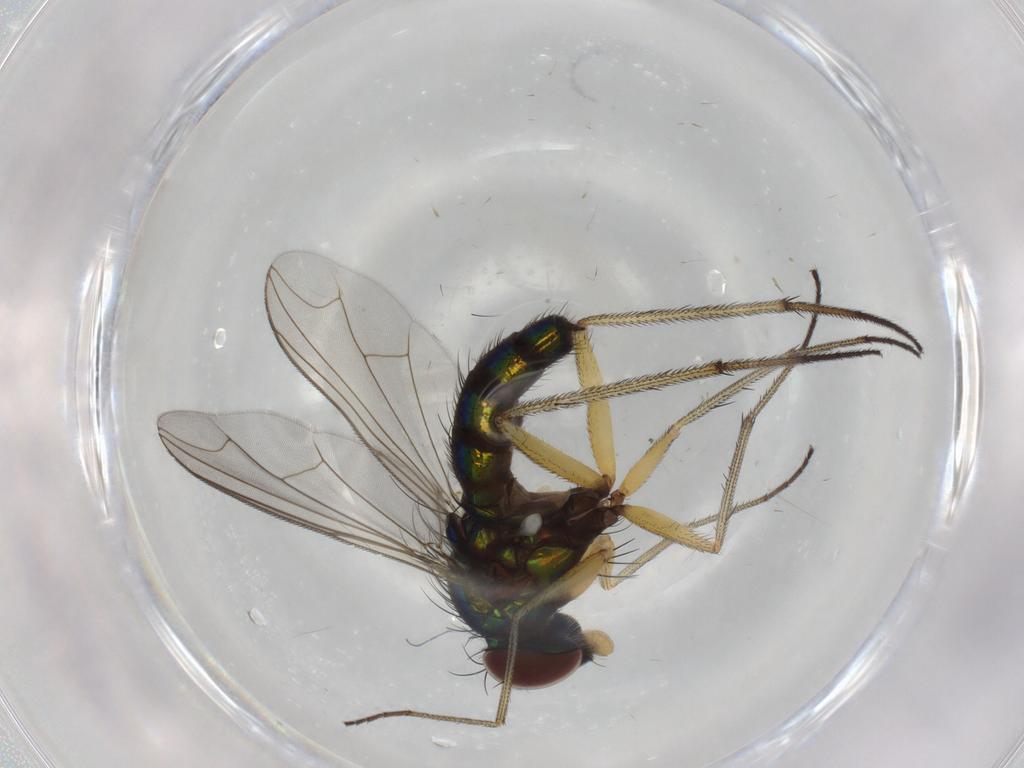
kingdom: Animalia
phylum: Arthropoda
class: Insecta
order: Diptera
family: Dolichopodidae
